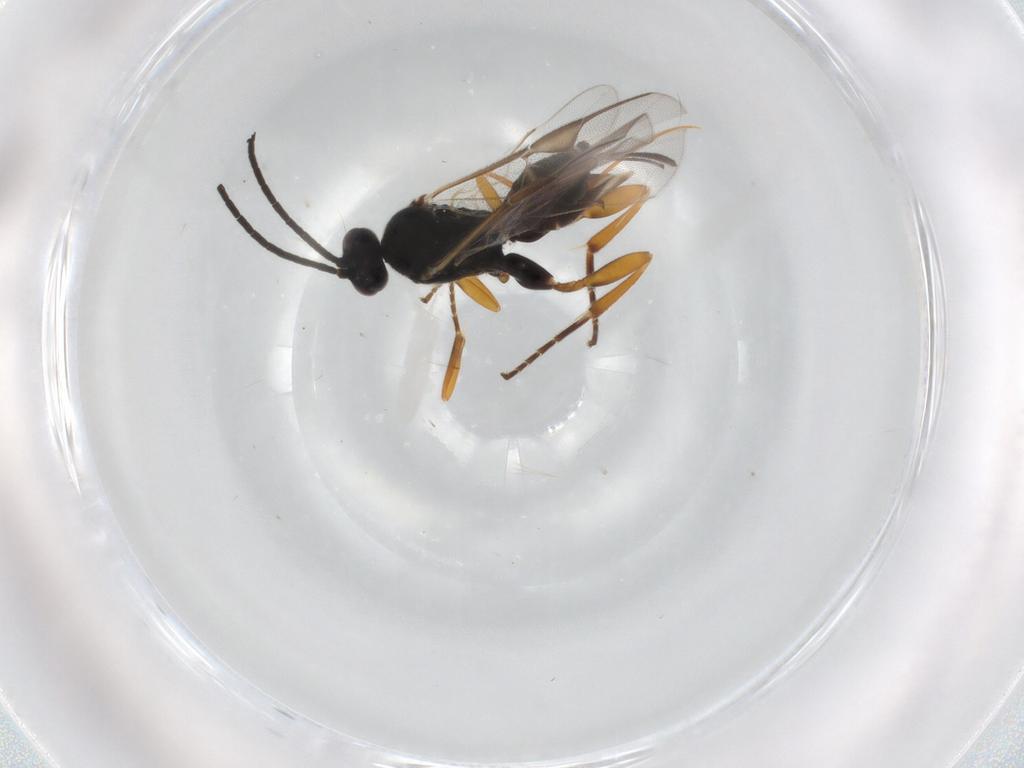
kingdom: Animalia
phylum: Arthropoda
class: Insecta
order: Hymenoptera
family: Braconidae
